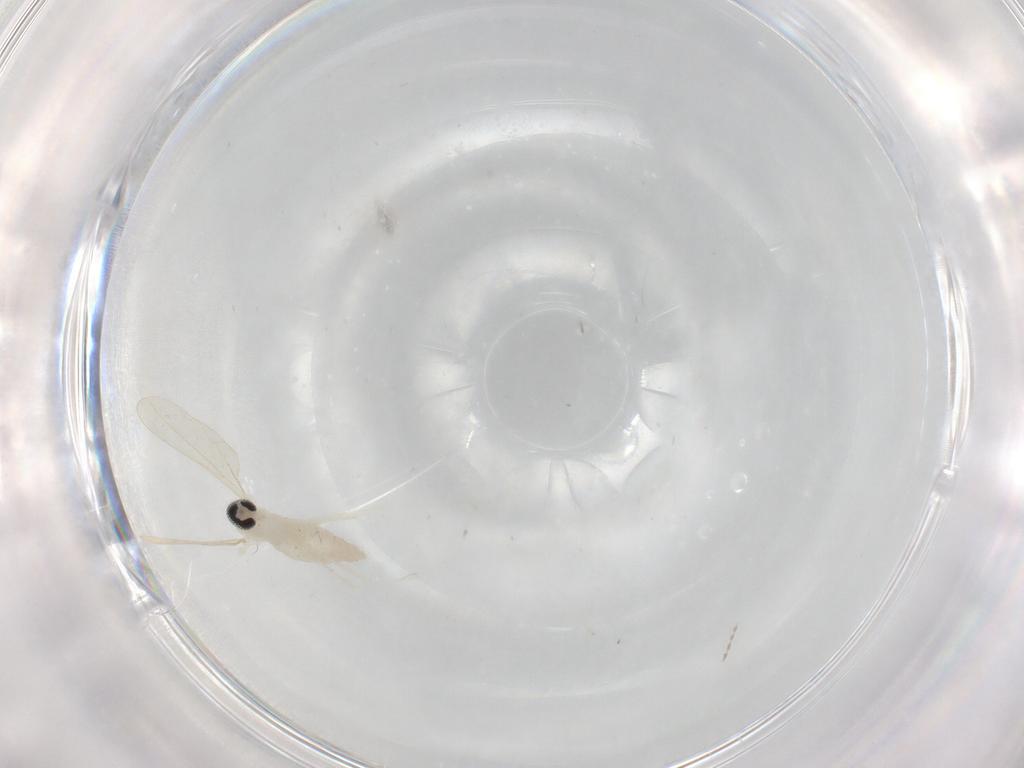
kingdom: Animalia
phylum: Arthropoda
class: Insecta
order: Diptera
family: Cecidomyiidae
